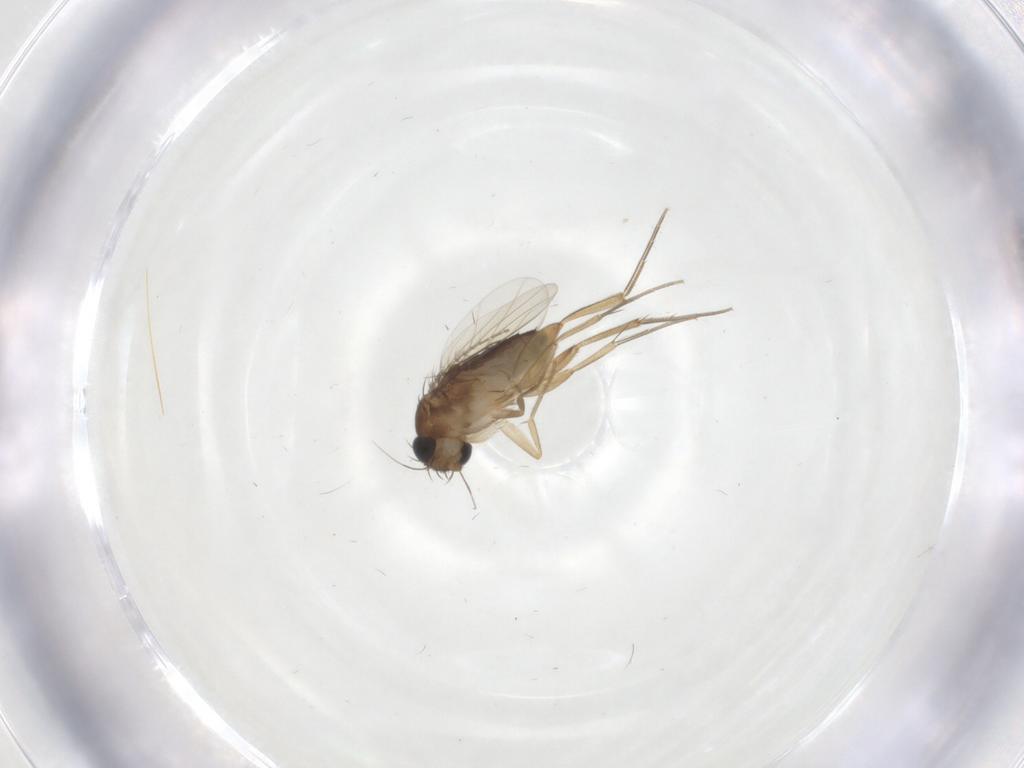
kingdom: Animalia
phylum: Arthropoda
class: Insecta
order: Diptera
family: Phoridae
